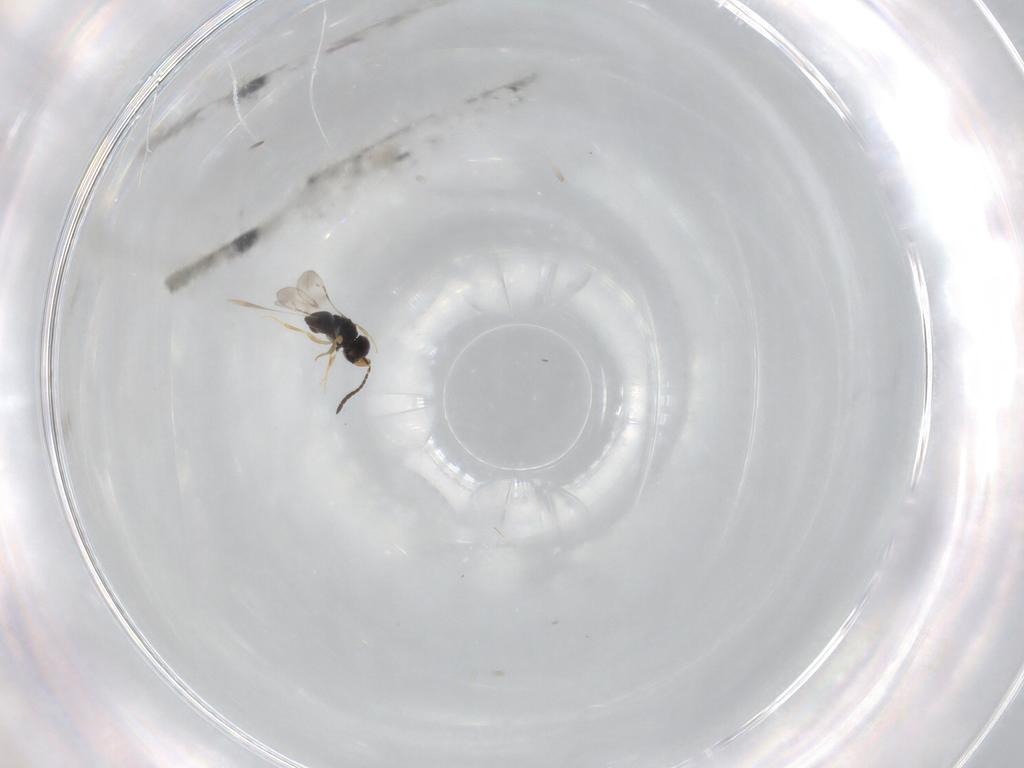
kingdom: Animalia
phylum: Arthropoda
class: Insecta
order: Hymenoptera
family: Ceraphronidae
